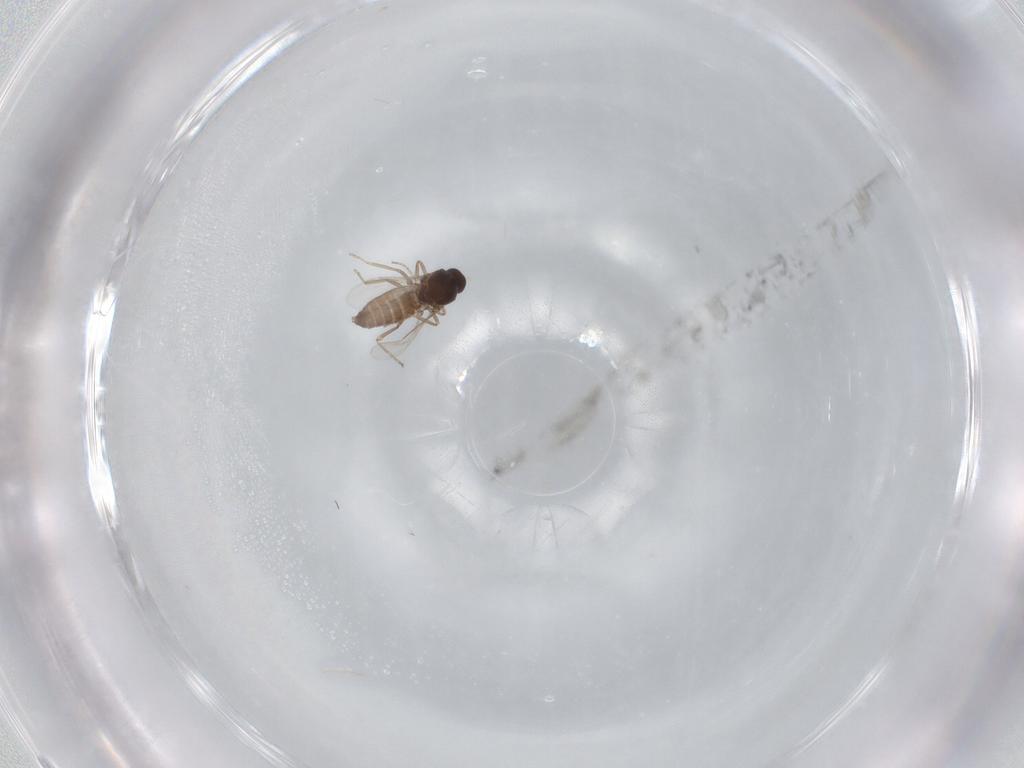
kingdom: Animalia
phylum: Arthropoda
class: Insecta
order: Diptera
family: Ceratopogonidae
